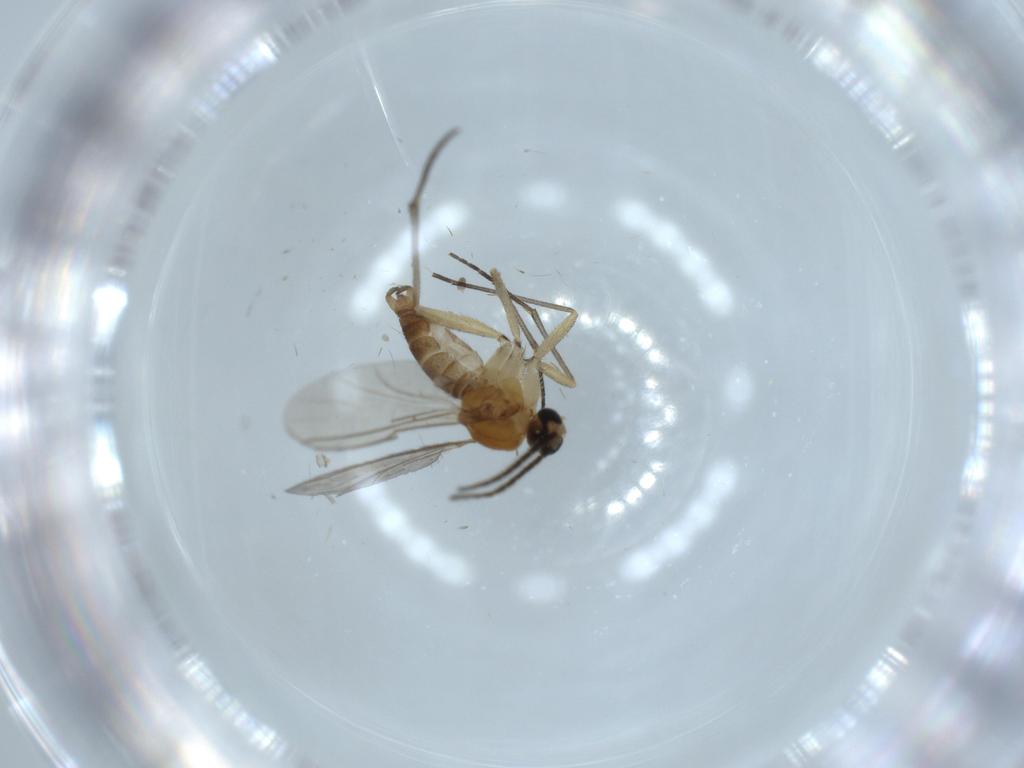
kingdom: Animalia
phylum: Arthropoda
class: Insecta
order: Diptera
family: Sciaridae
